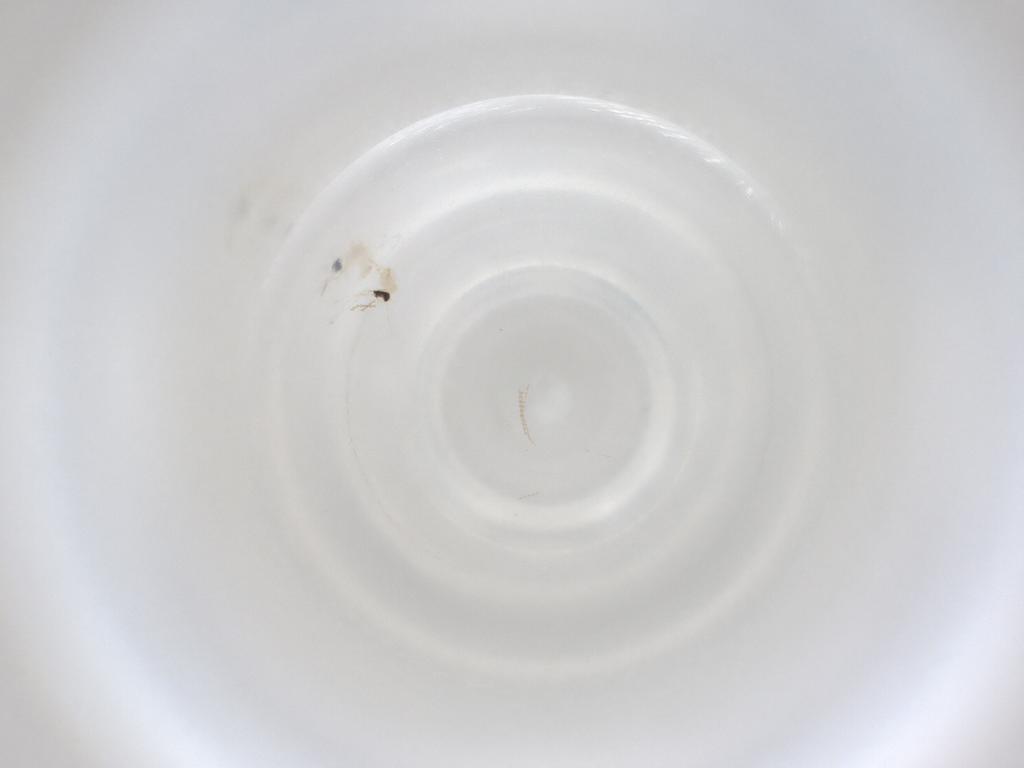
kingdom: Animalia
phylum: Arthropoda
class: Insecta
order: Diptera
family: Cecidomyiidae
